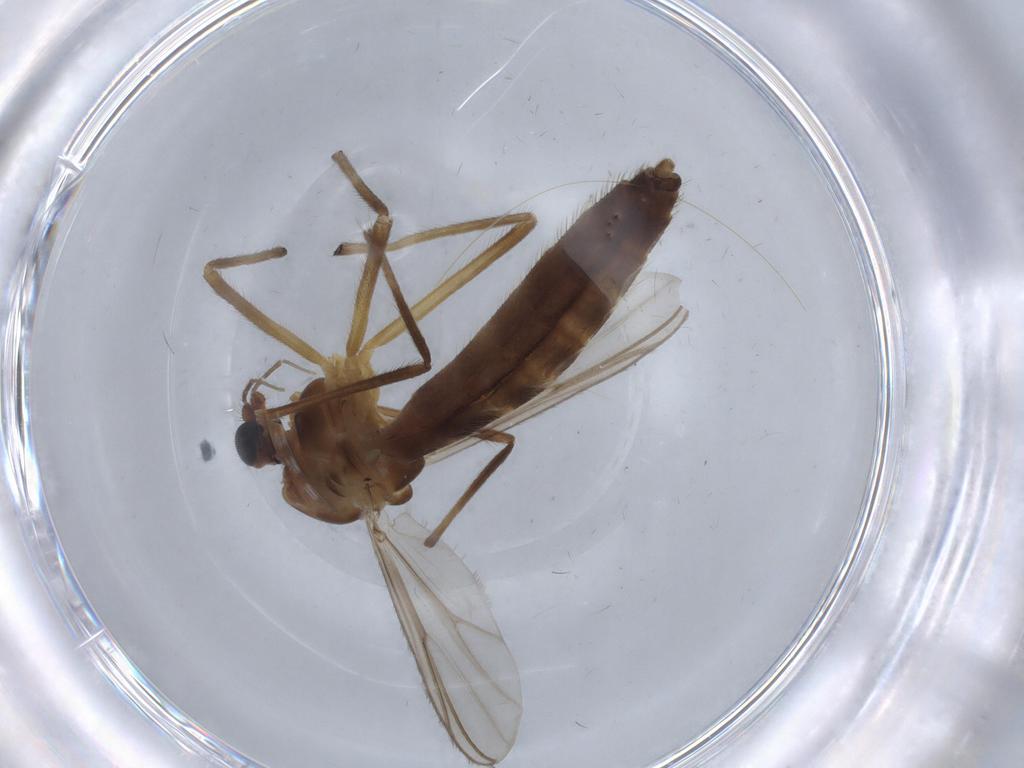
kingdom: Animalia
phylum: Arthropoda
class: Insecta
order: Diptera
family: Chironomidae
